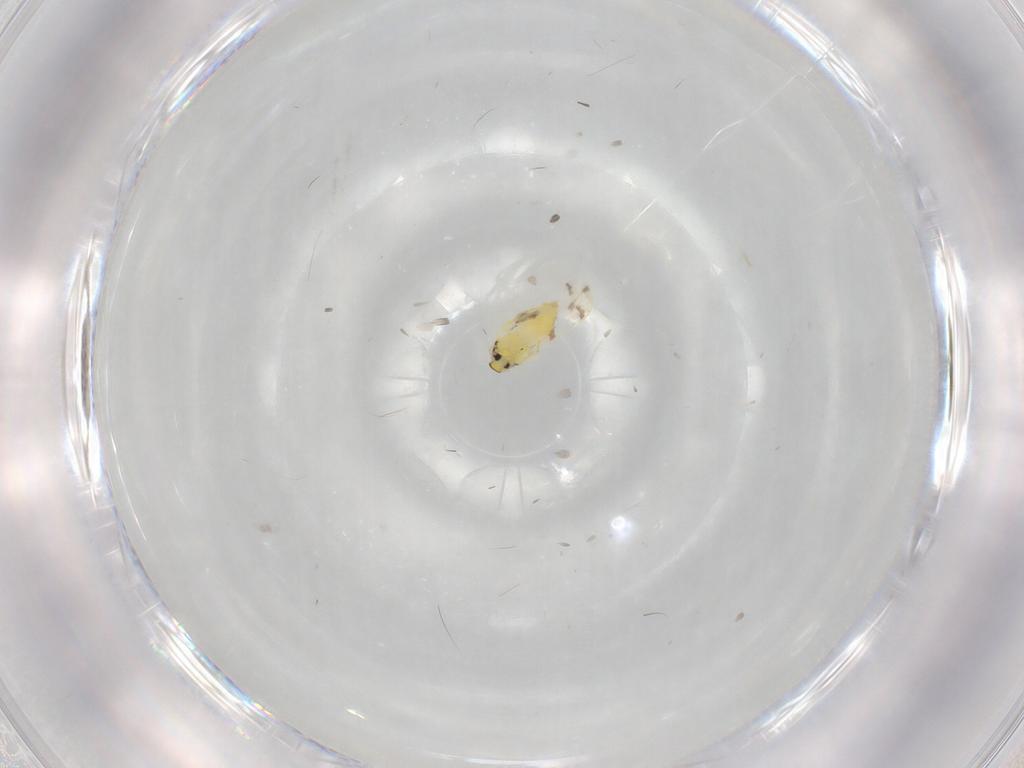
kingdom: Animalia
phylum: Arthropoda
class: Insecta
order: Hemiptera
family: Aleyrodidae
